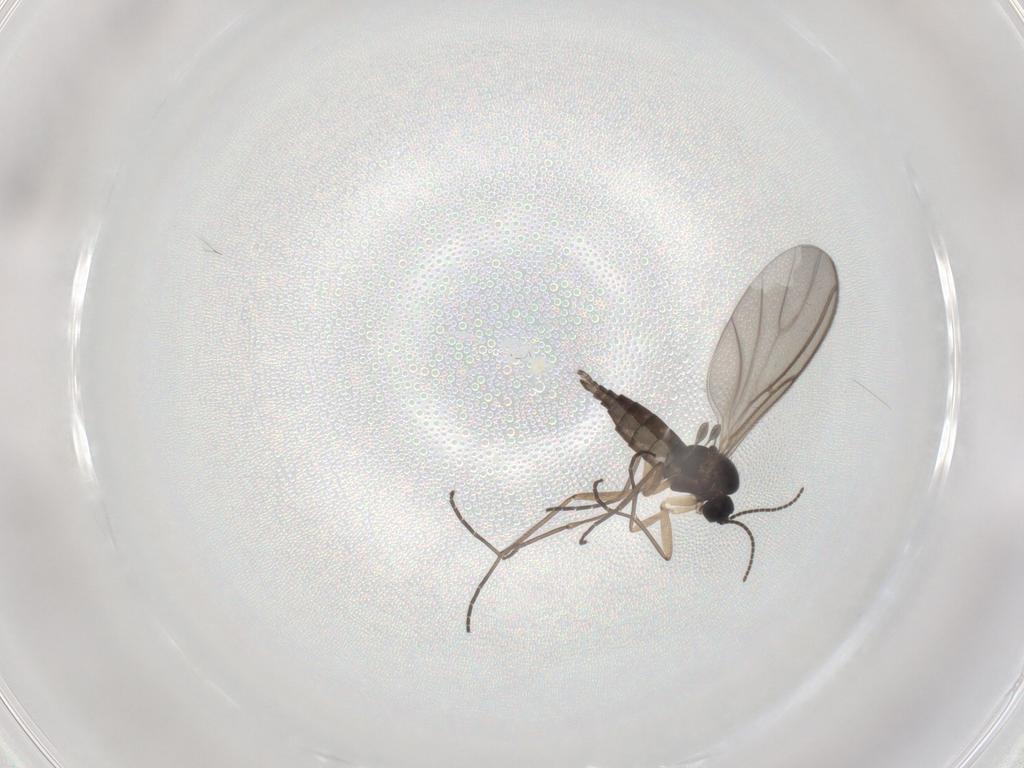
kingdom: Animalia
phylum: Arthropoda
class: Insecta
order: Diptera
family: Sciaridae
